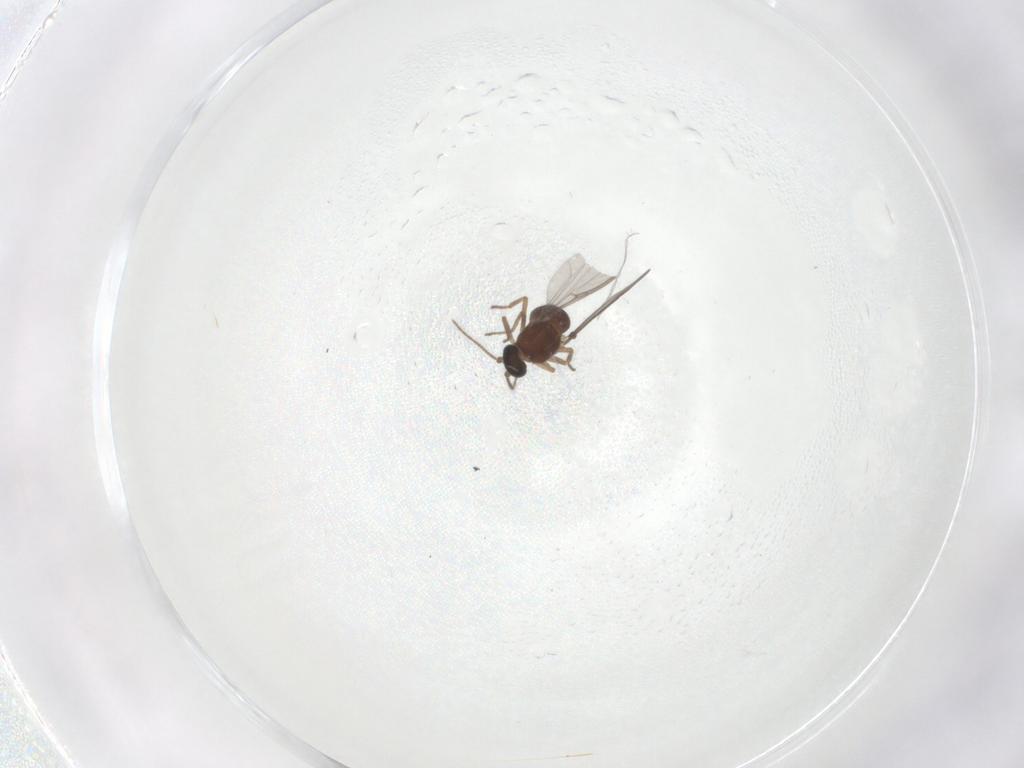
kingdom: Animalia
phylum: Arthropoda
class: Insecta
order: Diptera
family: Ceratopogonidae
